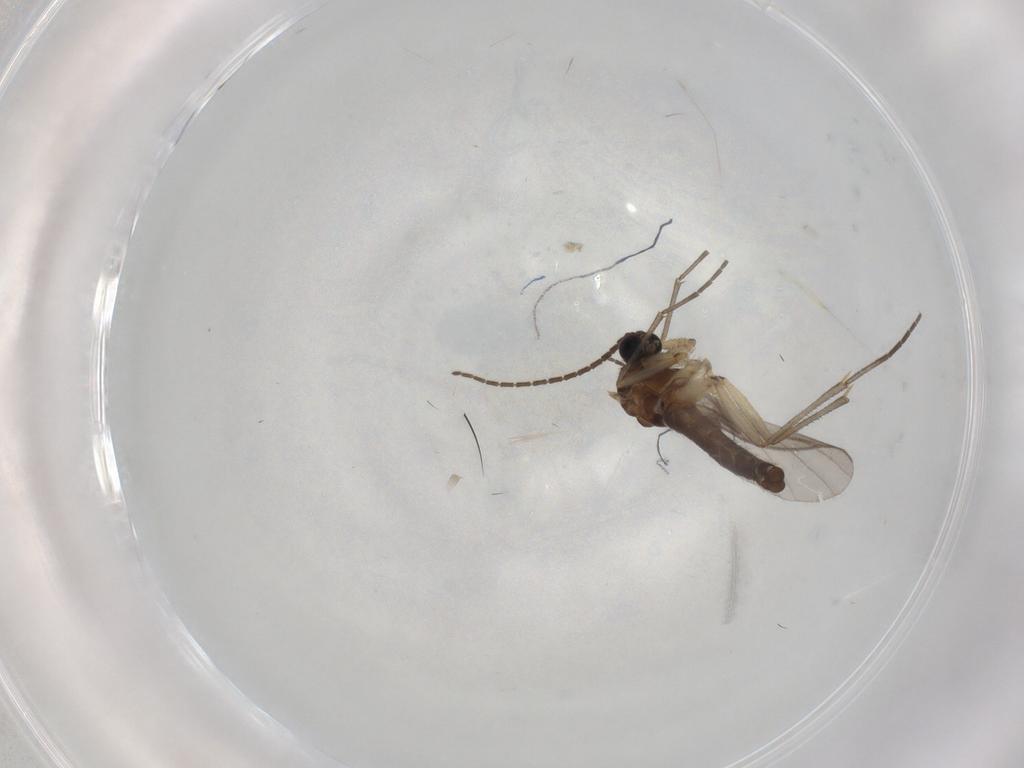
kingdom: Animalia
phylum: Arthropoda
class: Insecta
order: Diptera
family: Sciaridae
